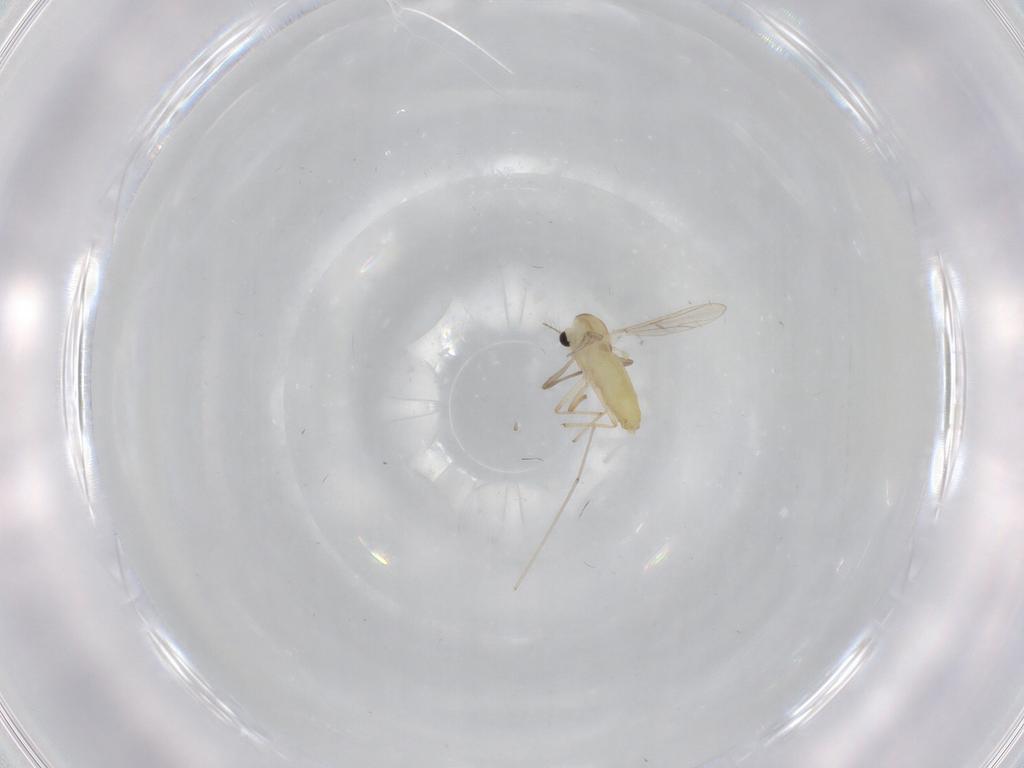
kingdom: Animalia
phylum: Arthropoda
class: Insecta
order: Diptera
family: Chironomidae
